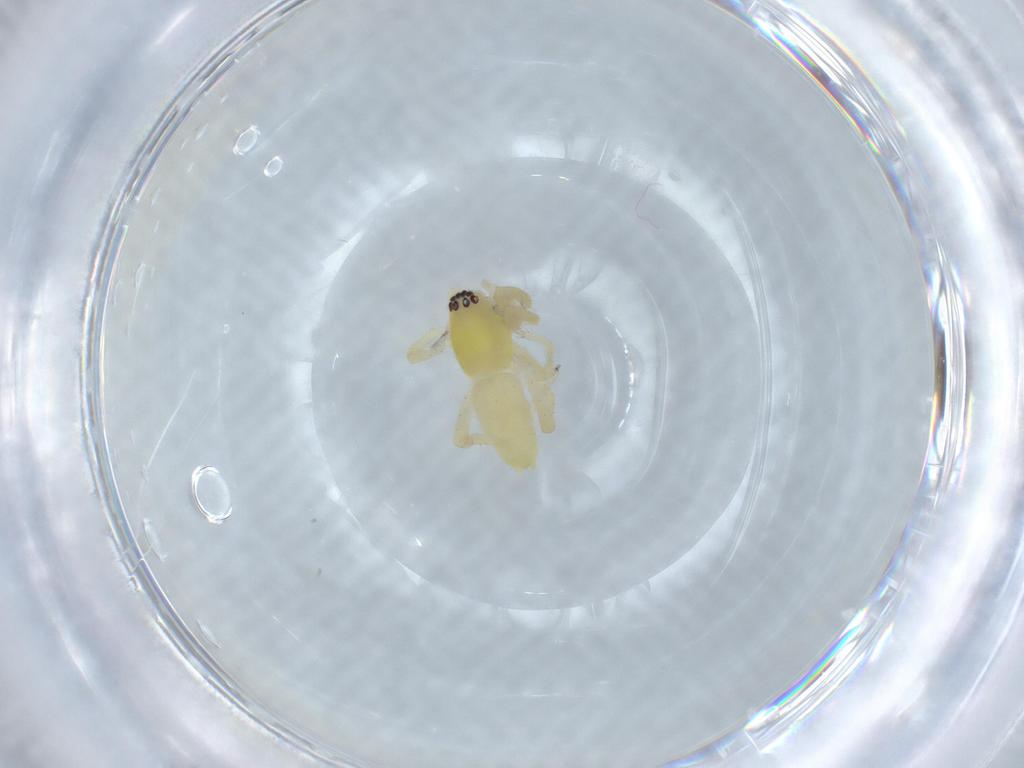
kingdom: Animalia
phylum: Arthropoda
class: Arachnida
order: Araneae
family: Anyphaenidae
